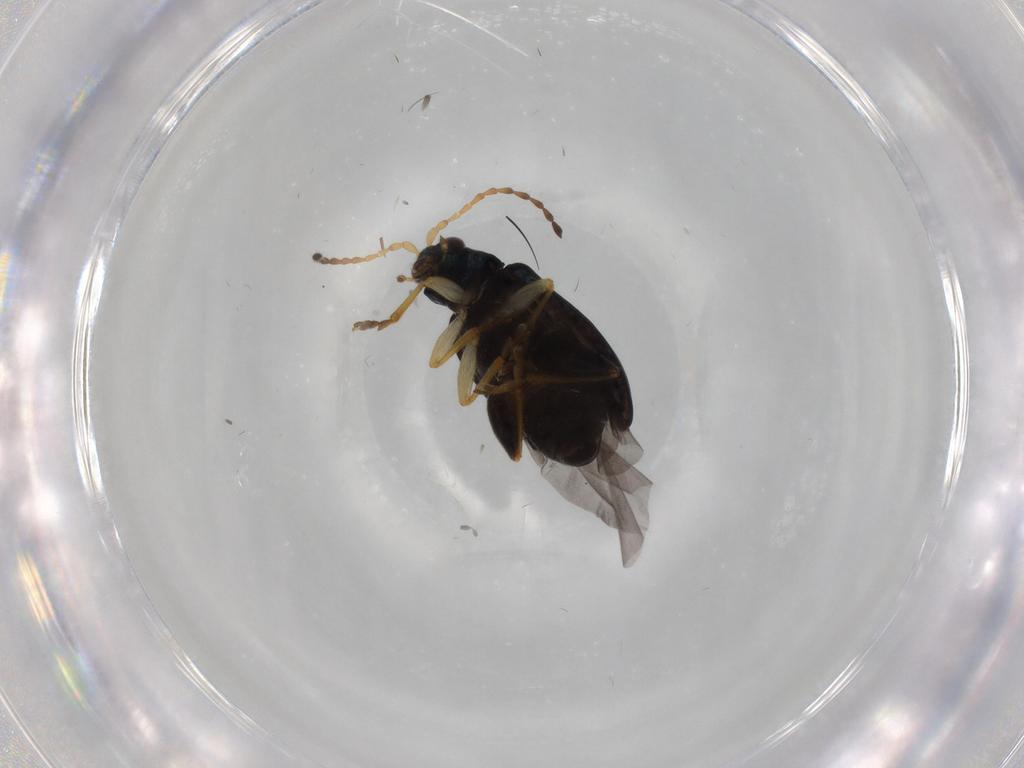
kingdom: Animalia
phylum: Arthropoda
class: Insecta
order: Coleoptera
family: Chrysomelidae
